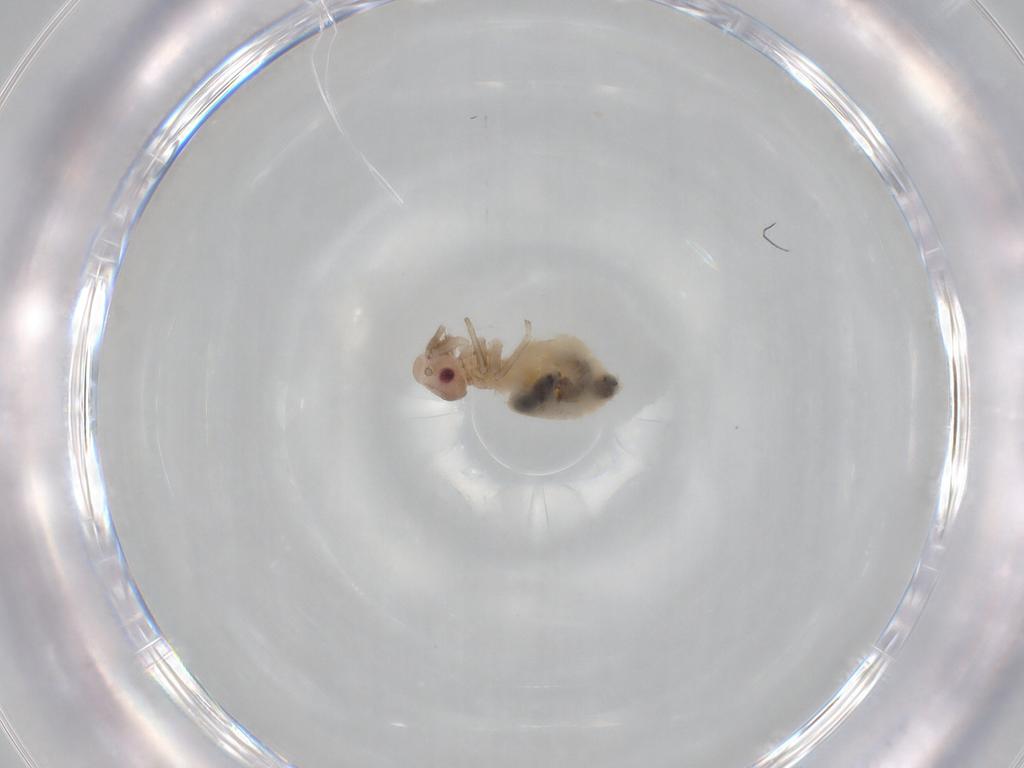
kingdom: Animalia
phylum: Arthropoda
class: Insecta
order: Psocodea
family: Stenopsocidae
